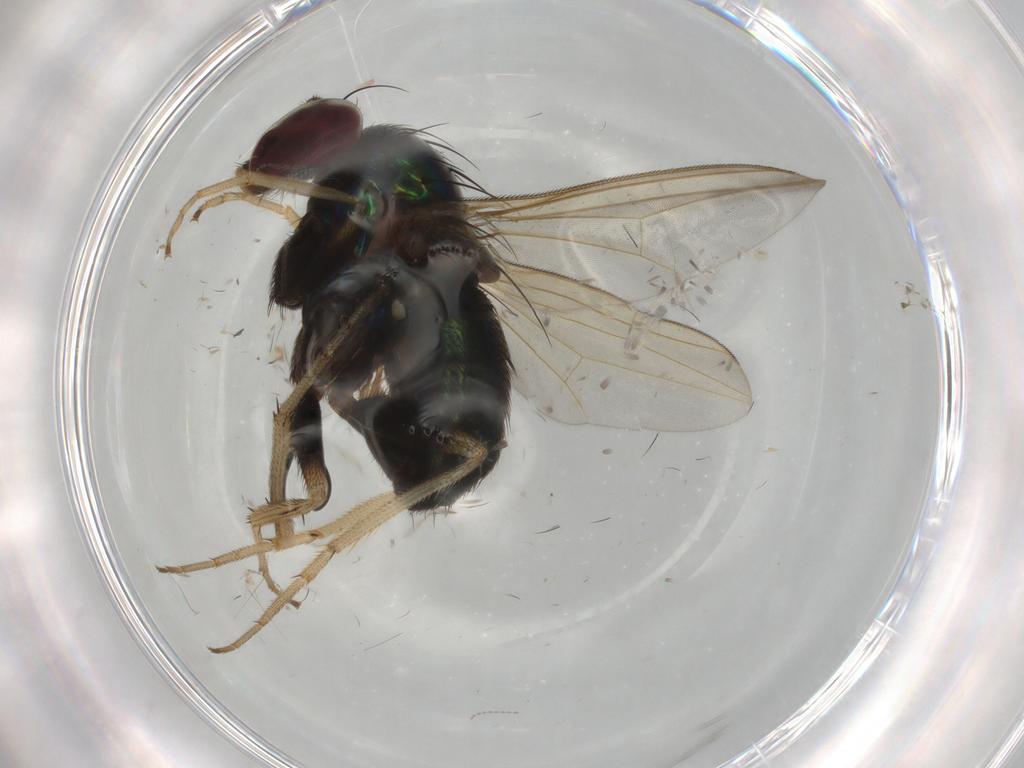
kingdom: Animalia
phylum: Arthropoda
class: Insecta
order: Diptera
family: Dolichopodidae
